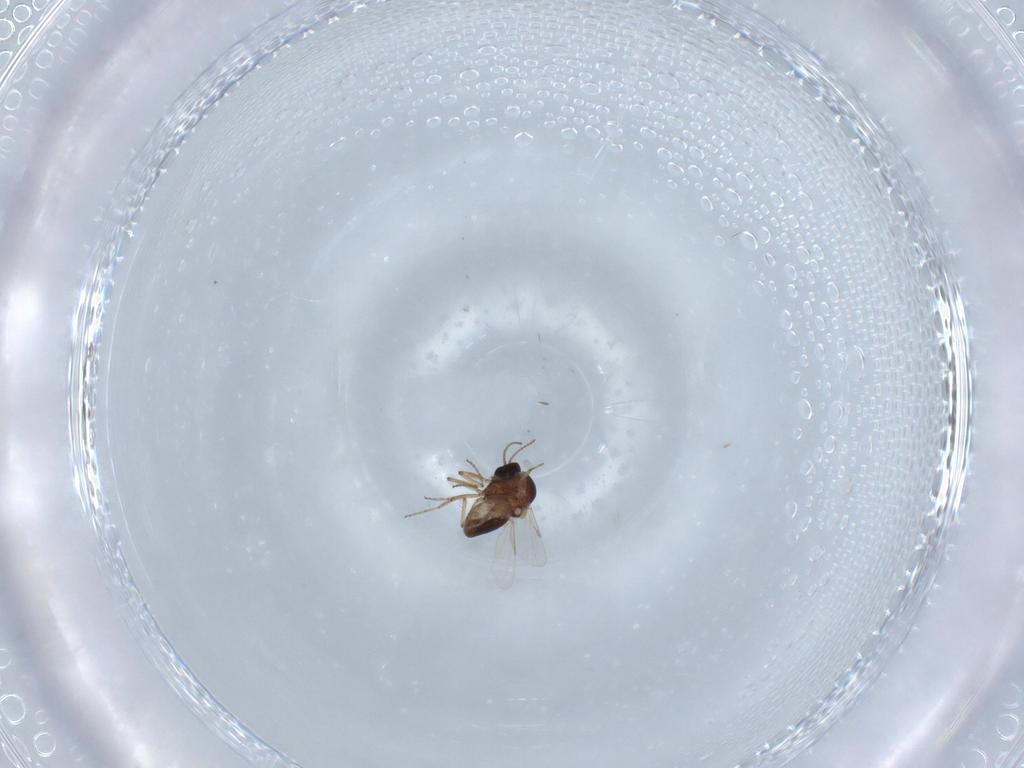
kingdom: Animalia
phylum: Arthropoda
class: Insecta
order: Diptera
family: Ceratopogonidae
